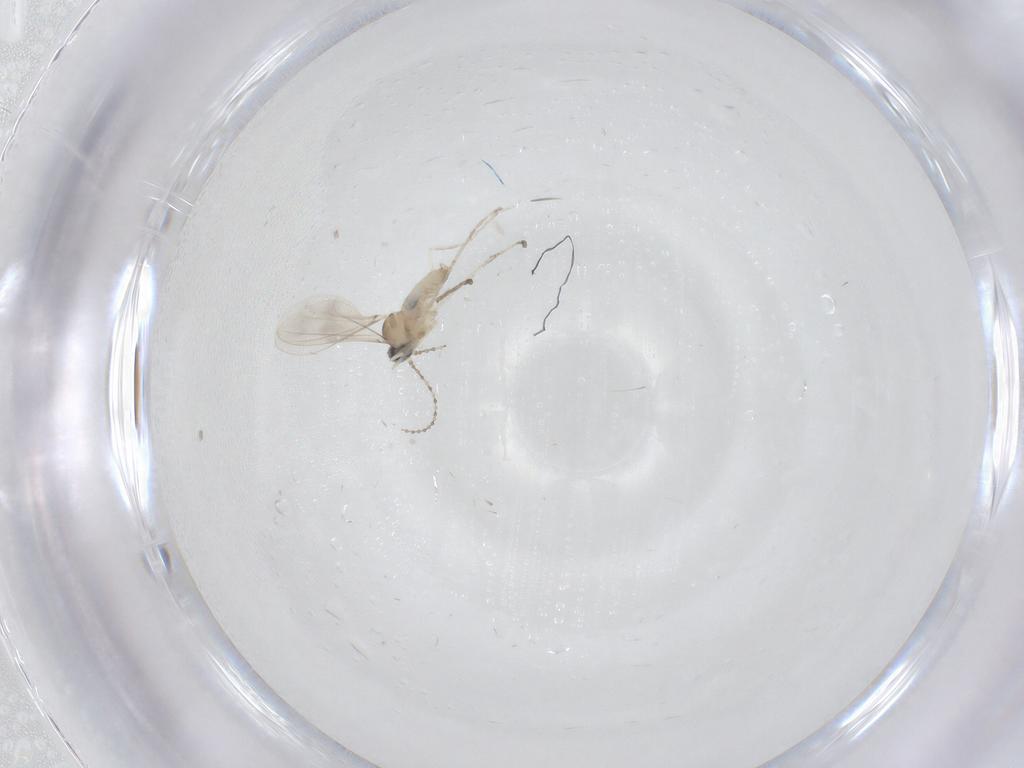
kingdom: Animalia
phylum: Arthropoda
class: Insecta
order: Diptera
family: Cecidomyiidae
